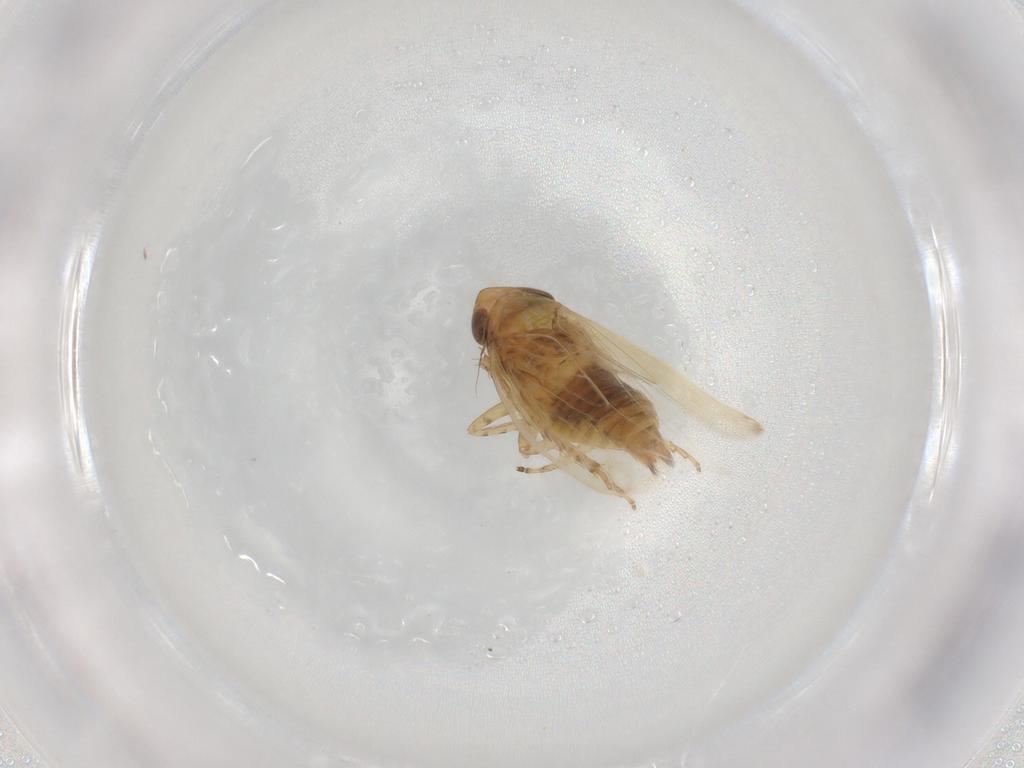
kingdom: Animalia
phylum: Arthropoda
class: Insecta
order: Hemiptera
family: Cicadellidae
